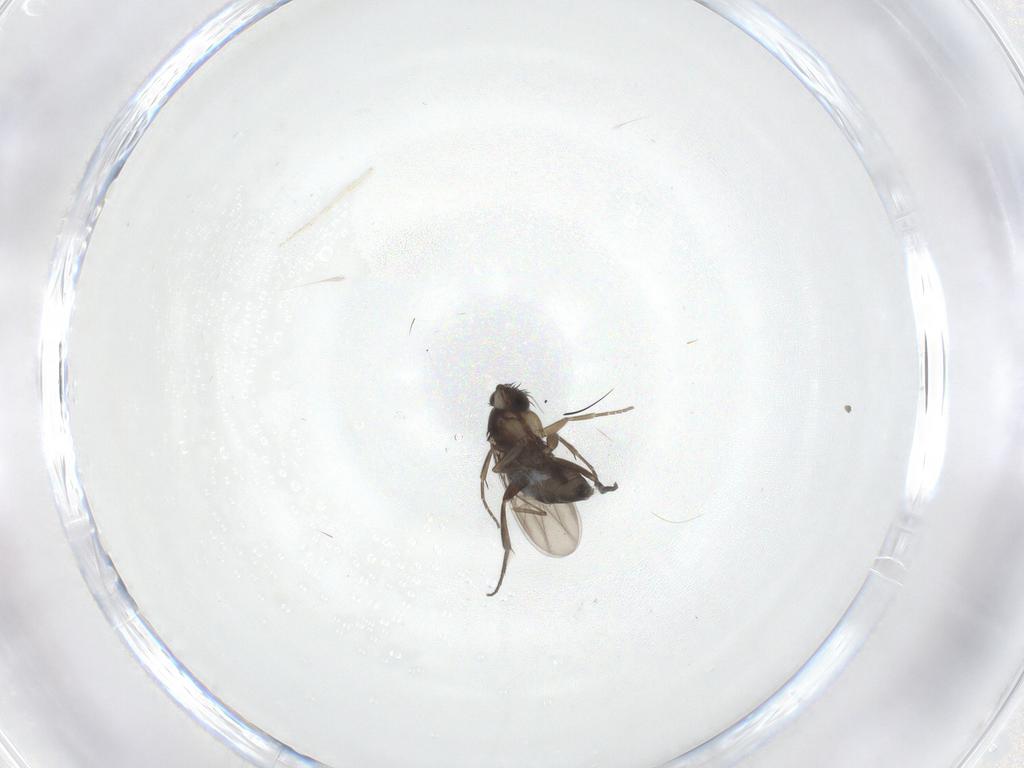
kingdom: Animalia
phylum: Arthropoda
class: Insecta
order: Diptera
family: Phoridae
